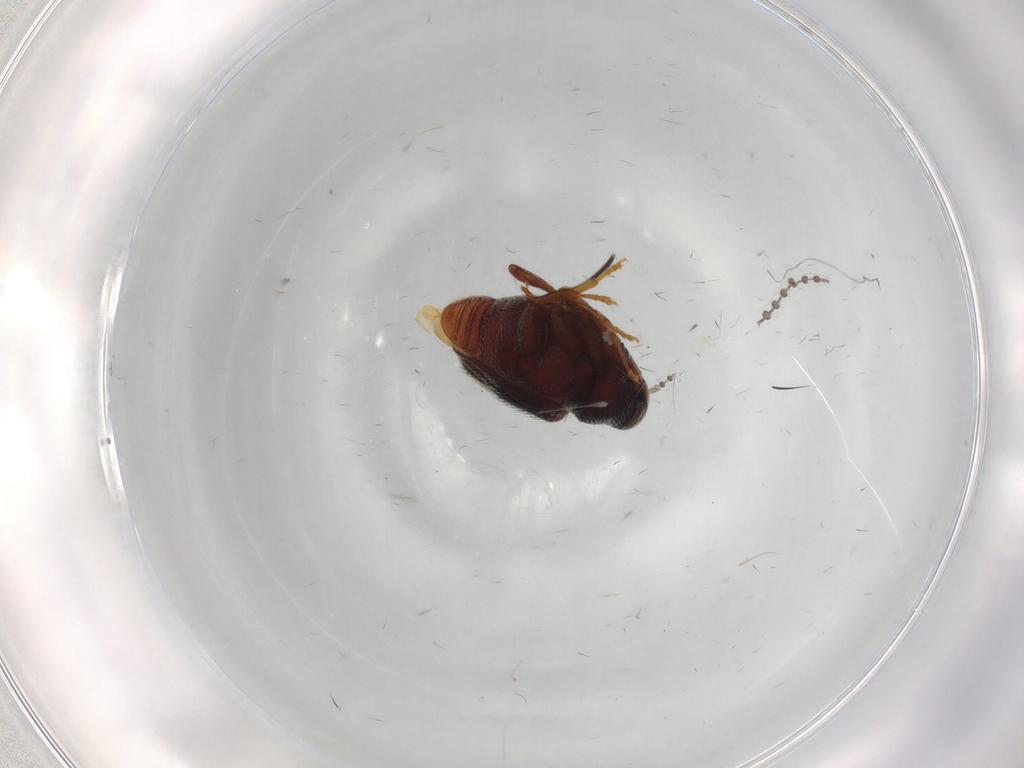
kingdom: Animalia
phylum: Arthropoda
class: Insecta
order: Coleoptera
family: Curculionidae
